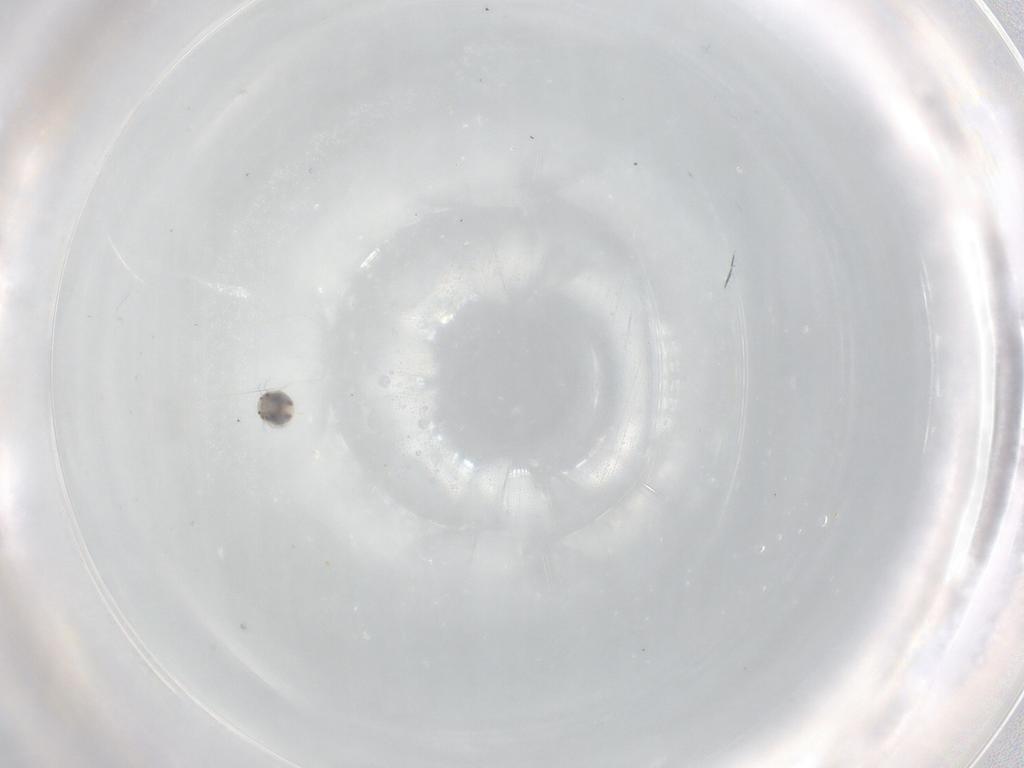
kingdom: Animalia
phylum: Arthropoda
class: Arachnida
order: Trombidiformes
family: Unionicolidae
